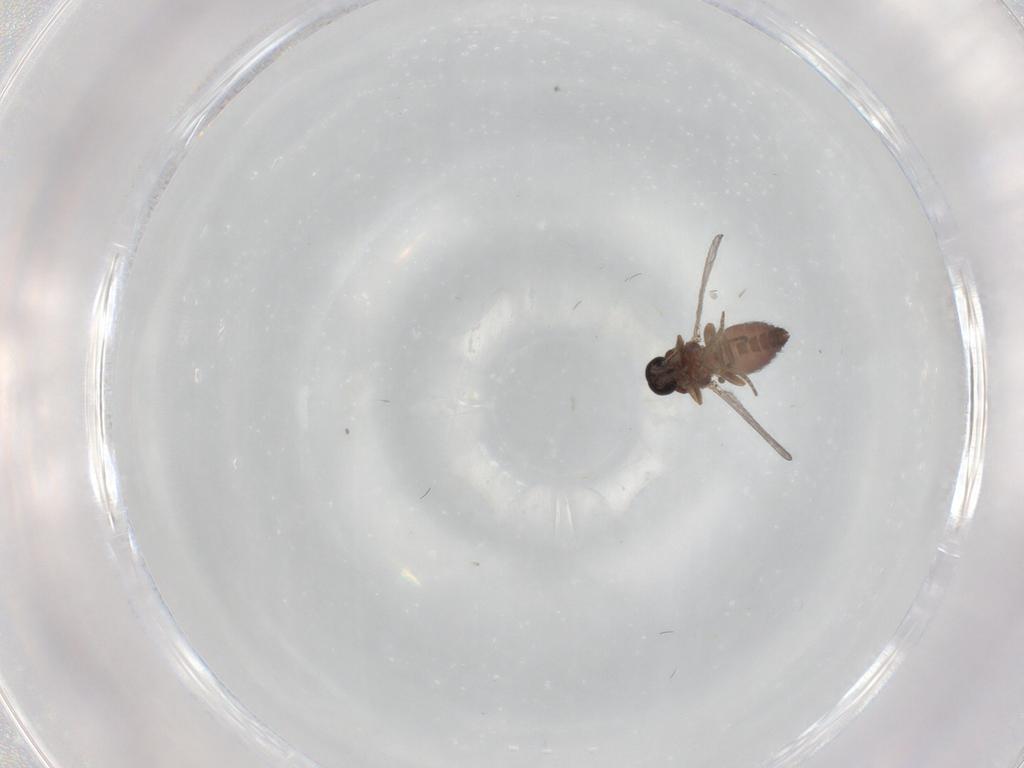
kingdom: Animalia
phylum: Arthropoda
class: Insecta
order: Diptera
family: Ceratopogonidae
